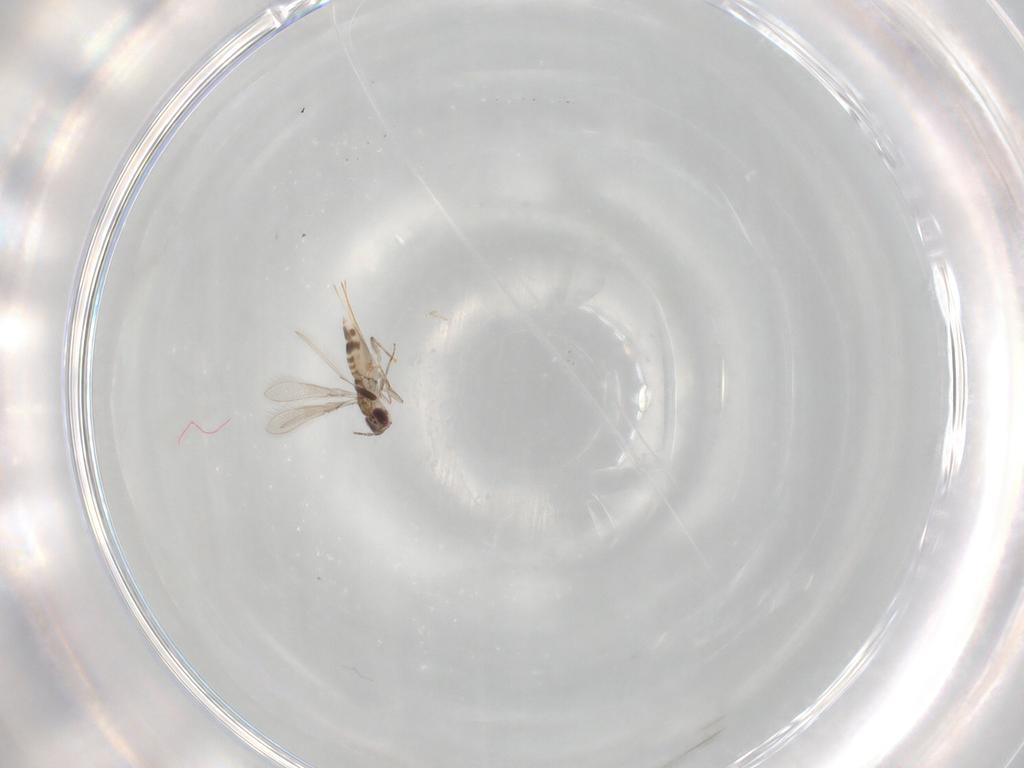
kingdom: Animalia
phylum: Arthropoda
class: Insecta
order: Hymenoptera
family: Mymaridae
